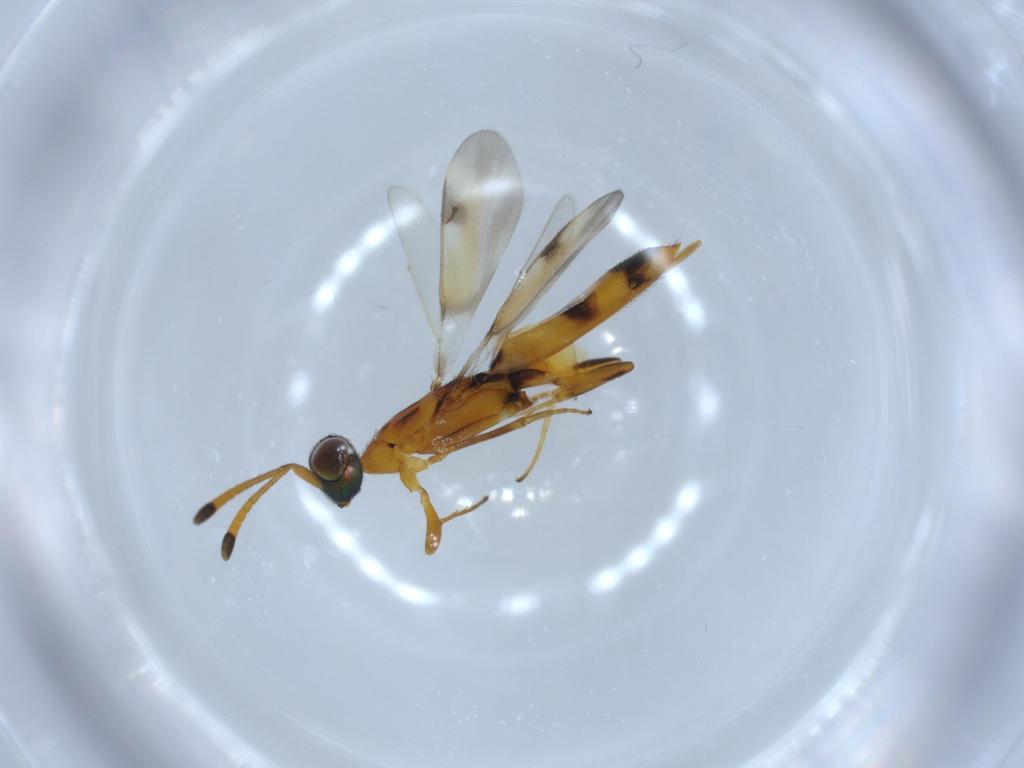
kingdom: Animalia
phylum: Arthropoda
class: Insecta
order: Hymenoptera
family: Eupelmidae
